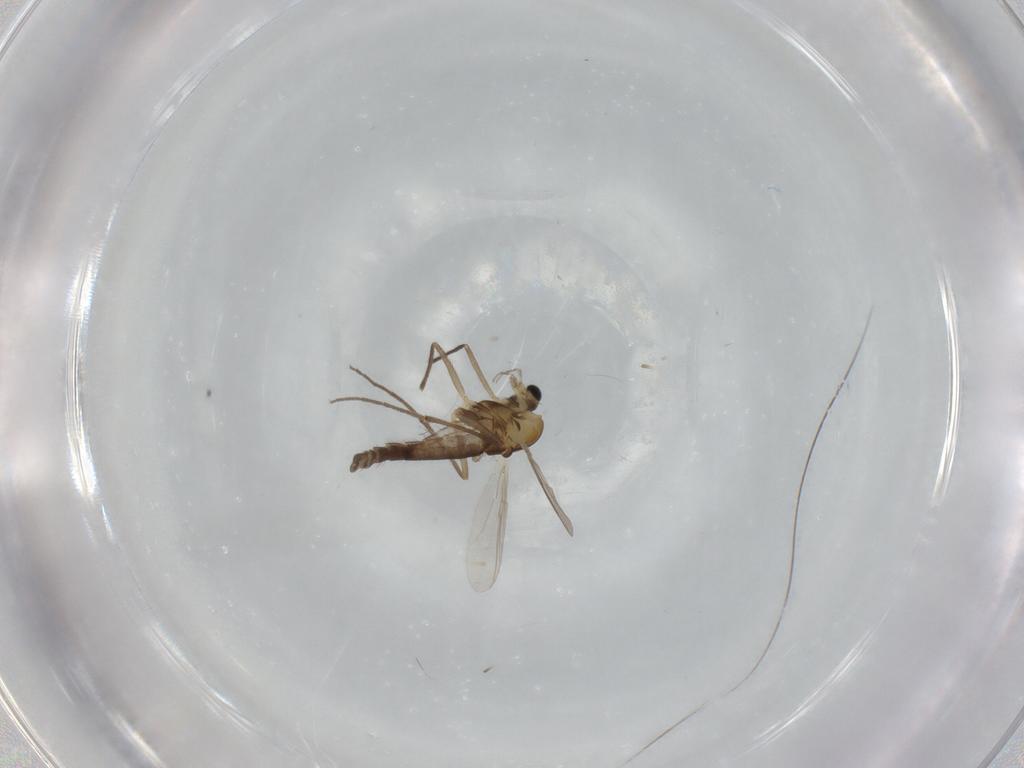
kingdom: Animalia
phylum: Arthropoda
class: Insecta
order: Diptera
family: Chironomidae
